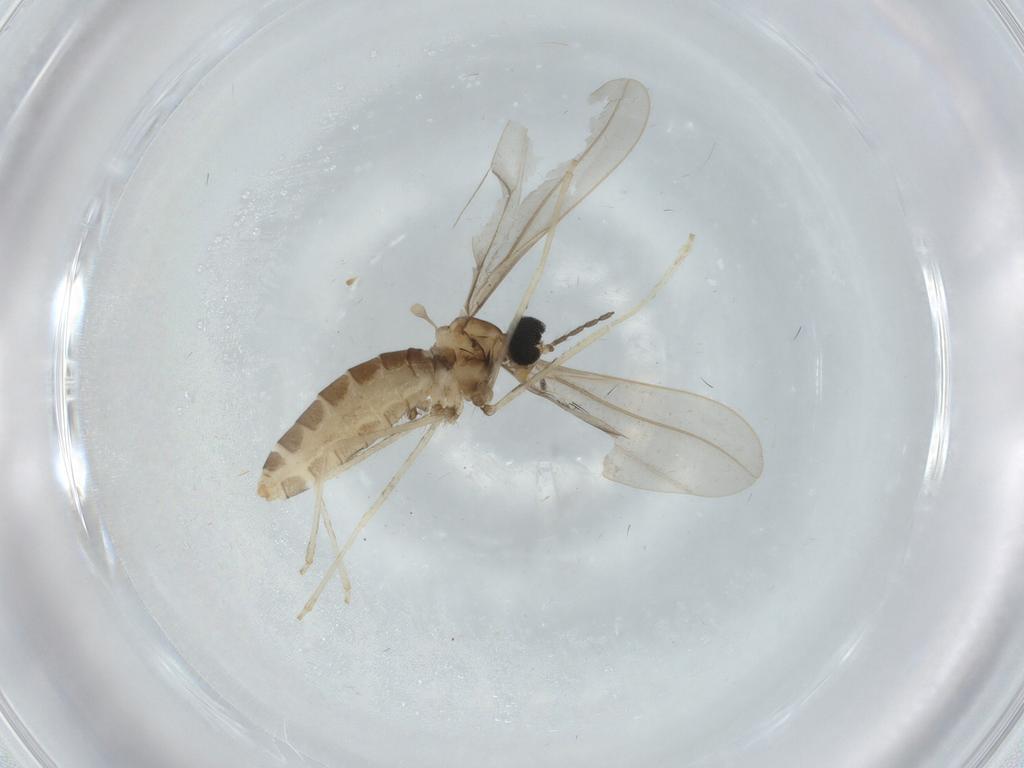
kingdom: Animalia
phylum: Arthropoda
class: Insecta
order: Diptera
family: Cecidomyiidae
